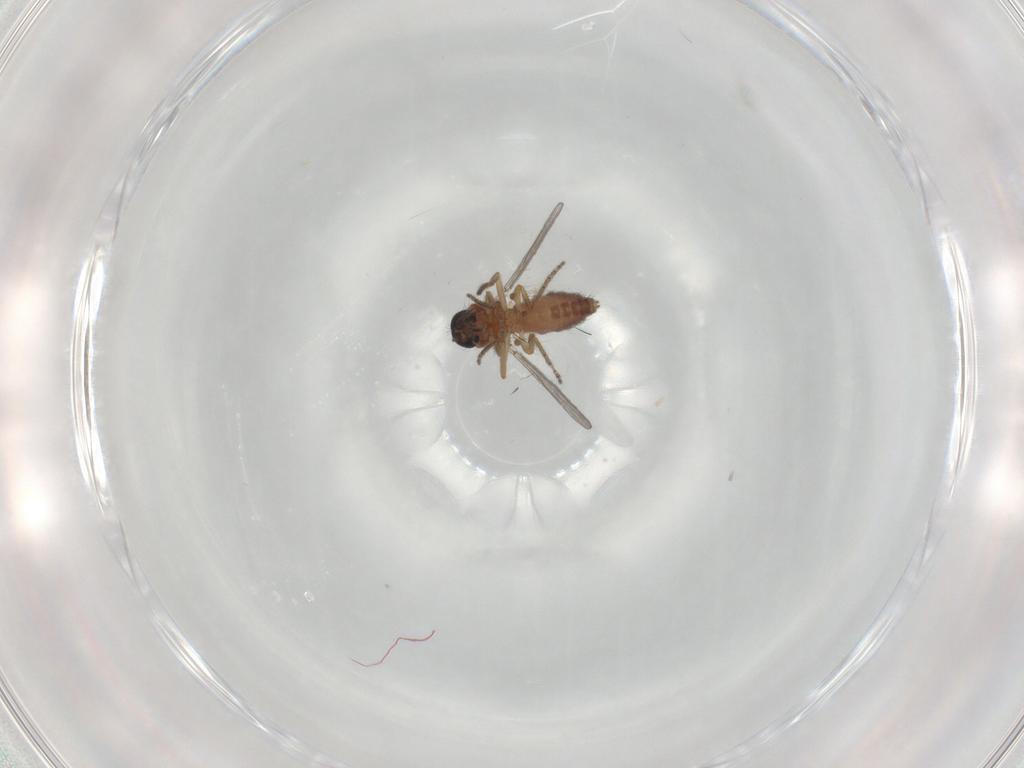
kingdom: Animalia
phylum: Arthropoda
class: Insecta
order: Diptera
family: Ceratopogonidae
